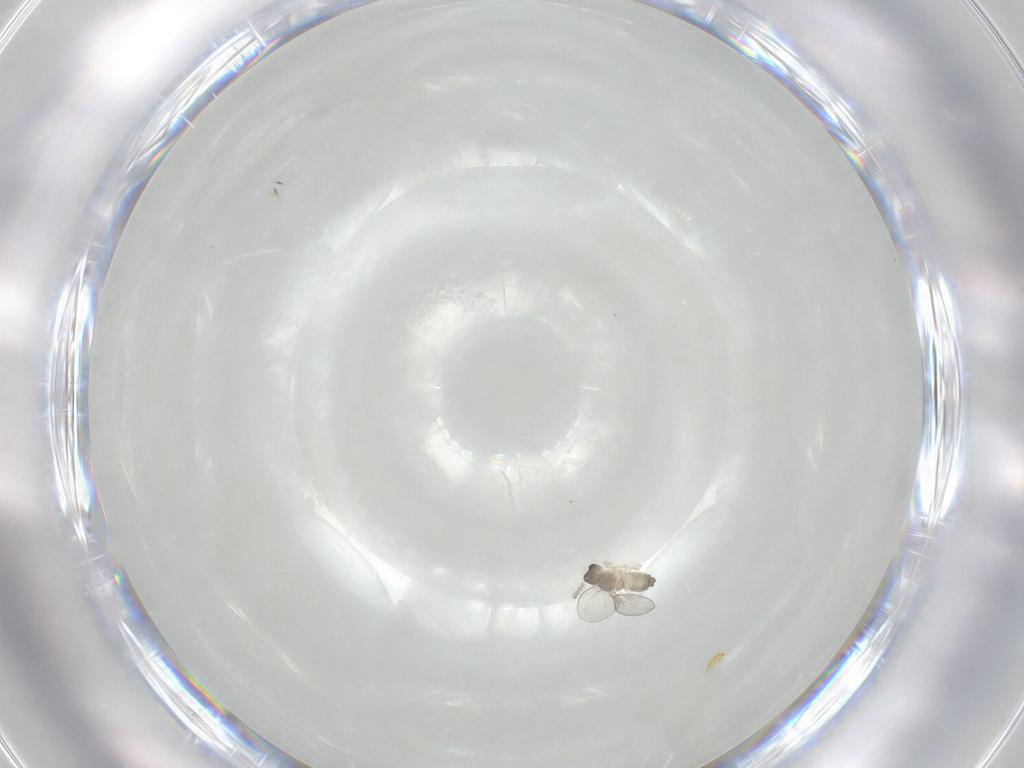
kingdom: Animalia
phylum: Arthropoda
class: Insecta
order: Diptera
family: Cecidomyiidae
